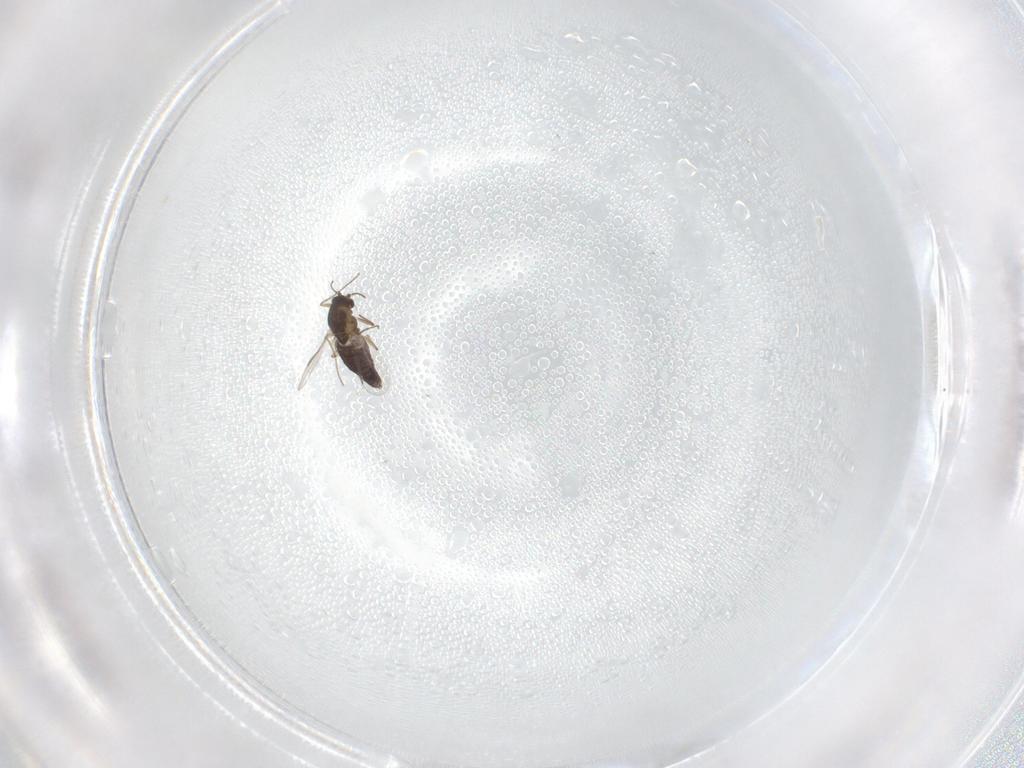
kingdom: Animalia
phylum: Arthropoda
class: Insecta
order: Diptera
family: Chironomidae
